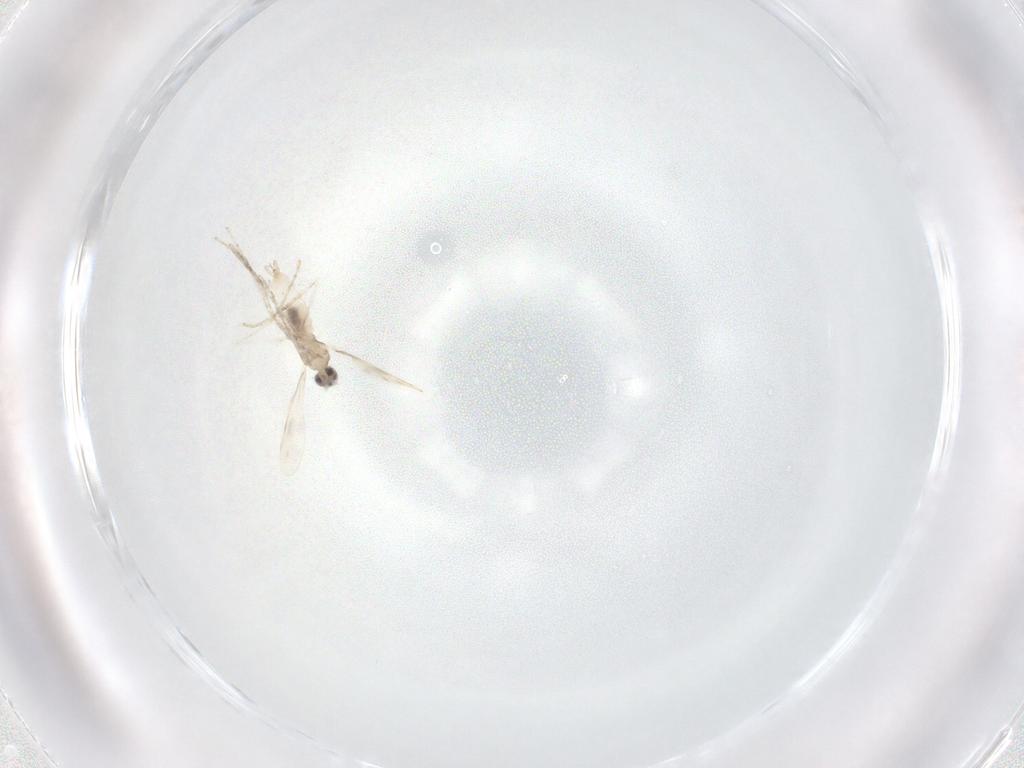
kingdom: Animalia
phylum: Arthropoda
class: Insecta
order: Diptera
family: Cecidomyiidae
